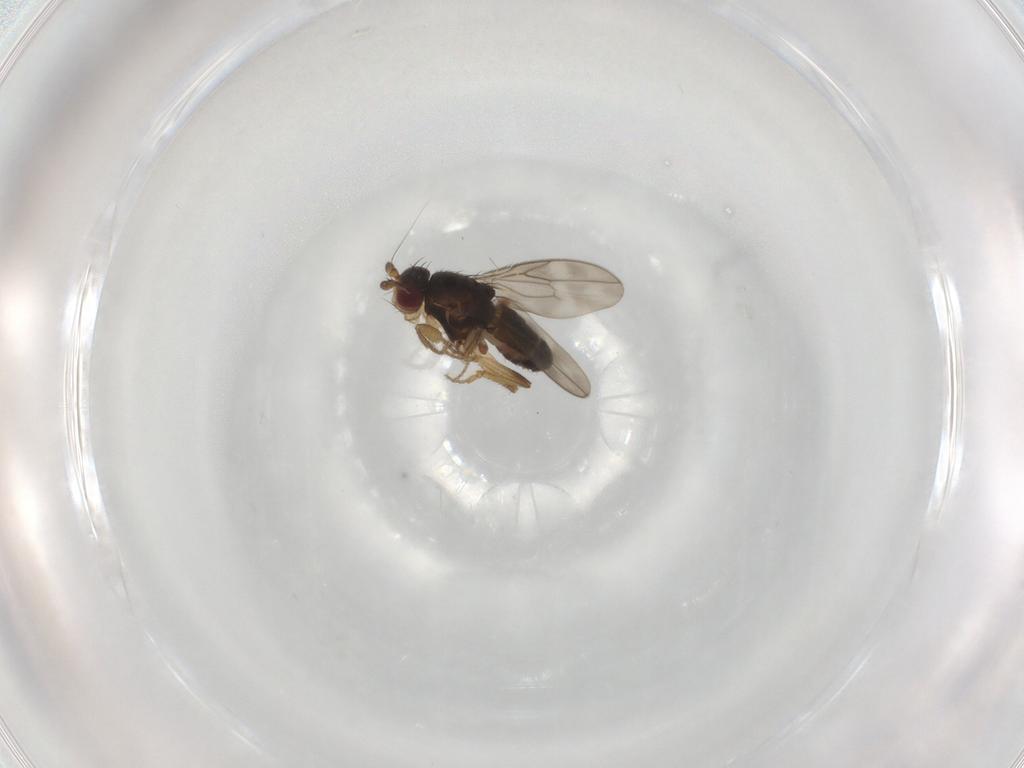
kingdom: Animalia
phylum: Arthropoda
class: Insecta
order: Diptera
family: Sphaeroceridae
